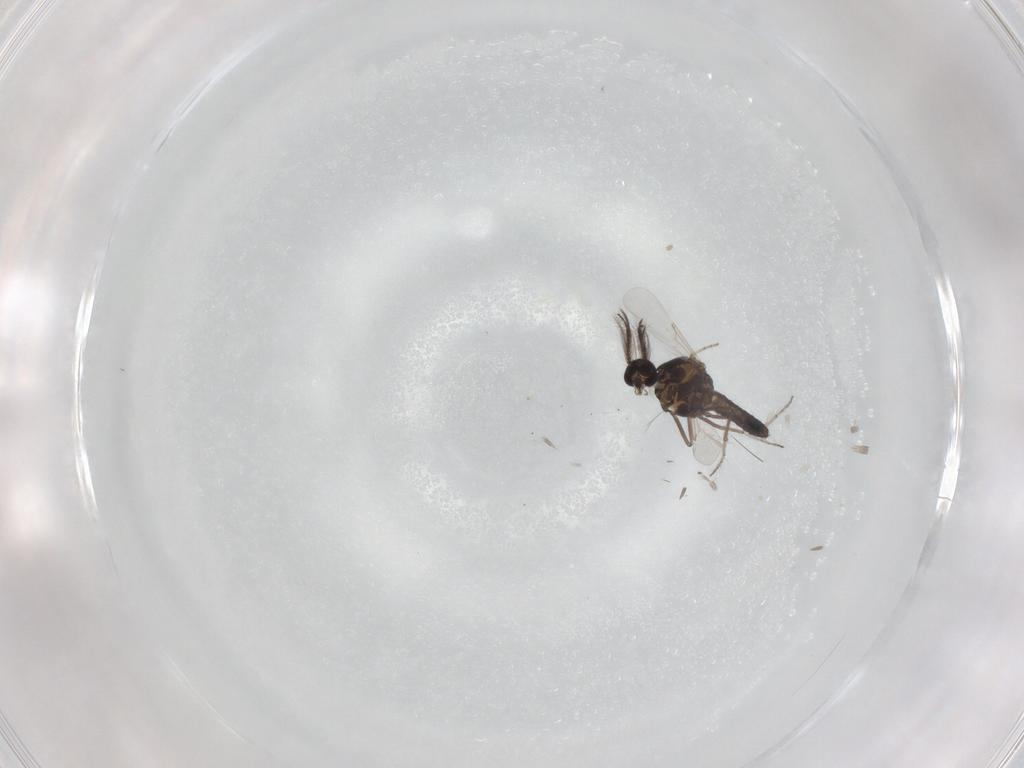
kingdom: Animalia
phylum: Arthropoda
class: Insecta
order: Diptera
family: Ceratopogonidae
